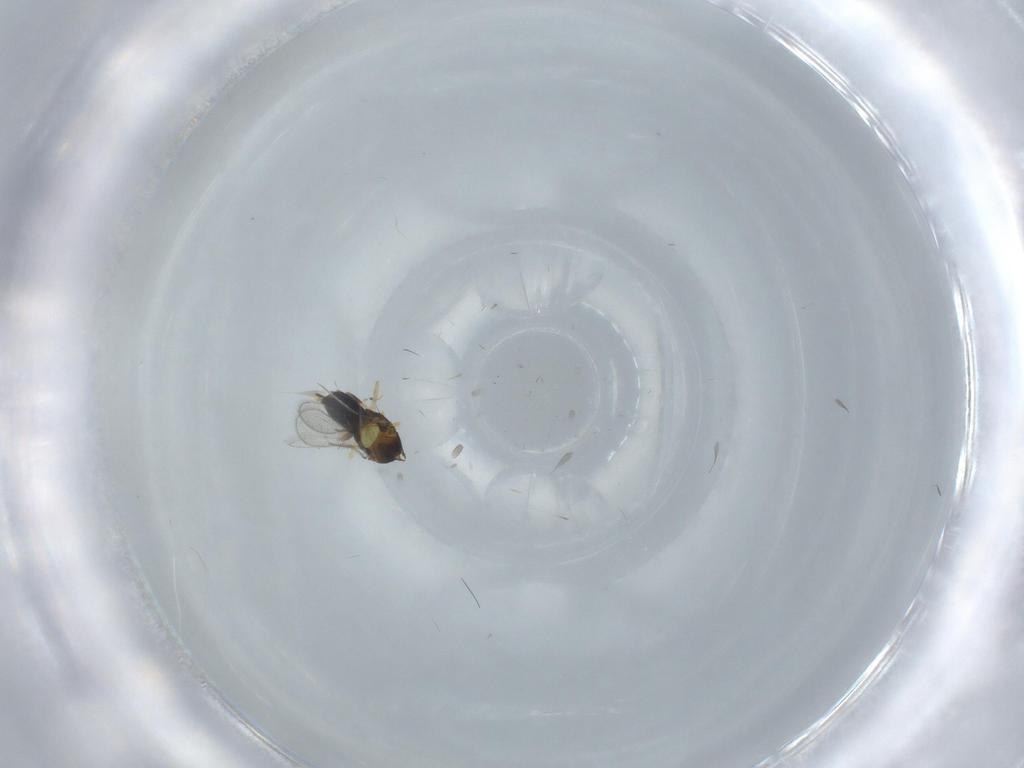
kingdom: Animalia
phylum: Arthropoda
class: Insecta
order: Hymenoptera
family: Aphelinidae
